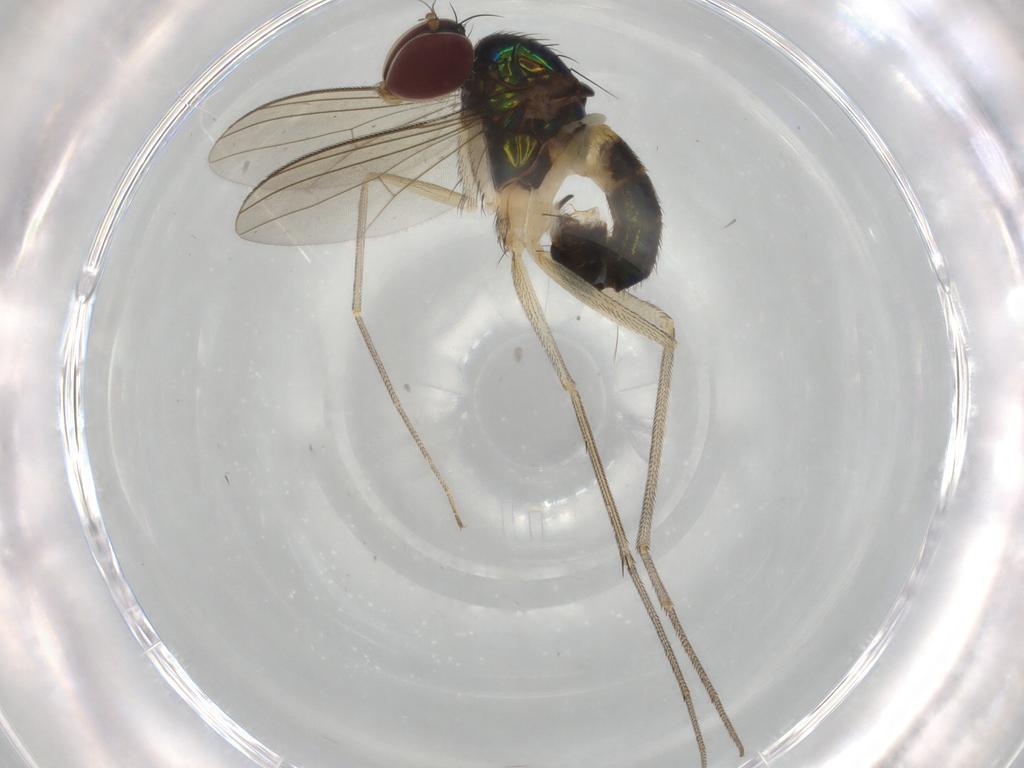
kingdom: Animalia
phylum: Arthropoda
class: Insecta
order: Diptera
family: Dolichopodidae
